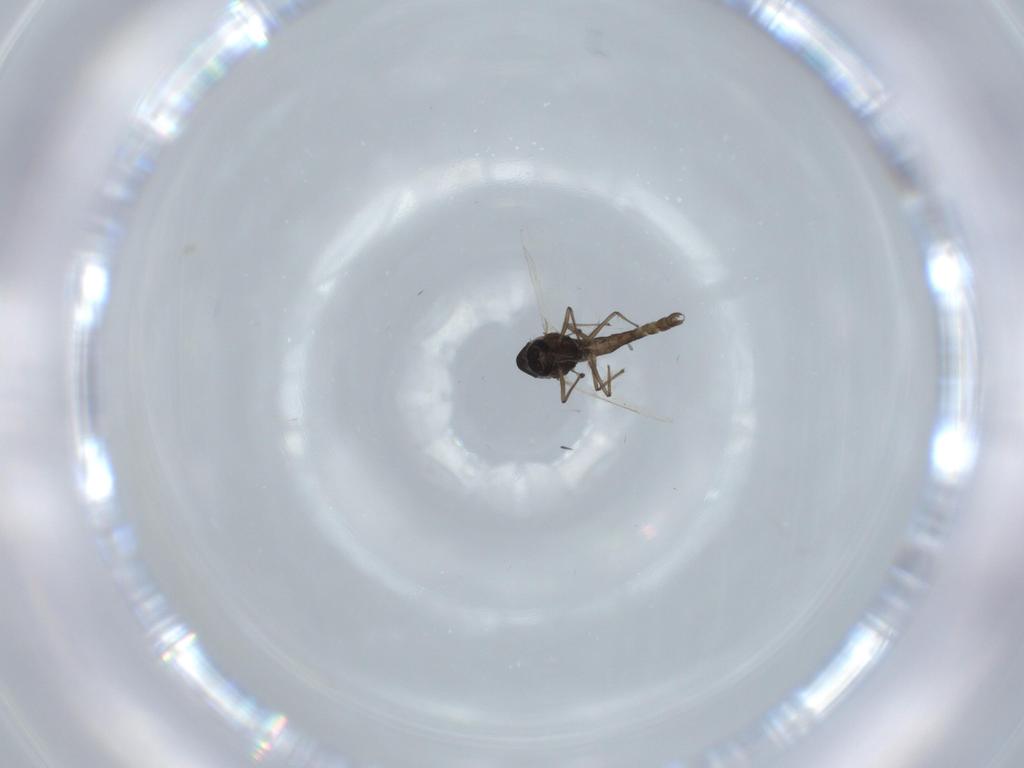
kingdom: Animalia
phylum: Arthropoda
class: Insecta
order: Diptera
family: Chironomidae
